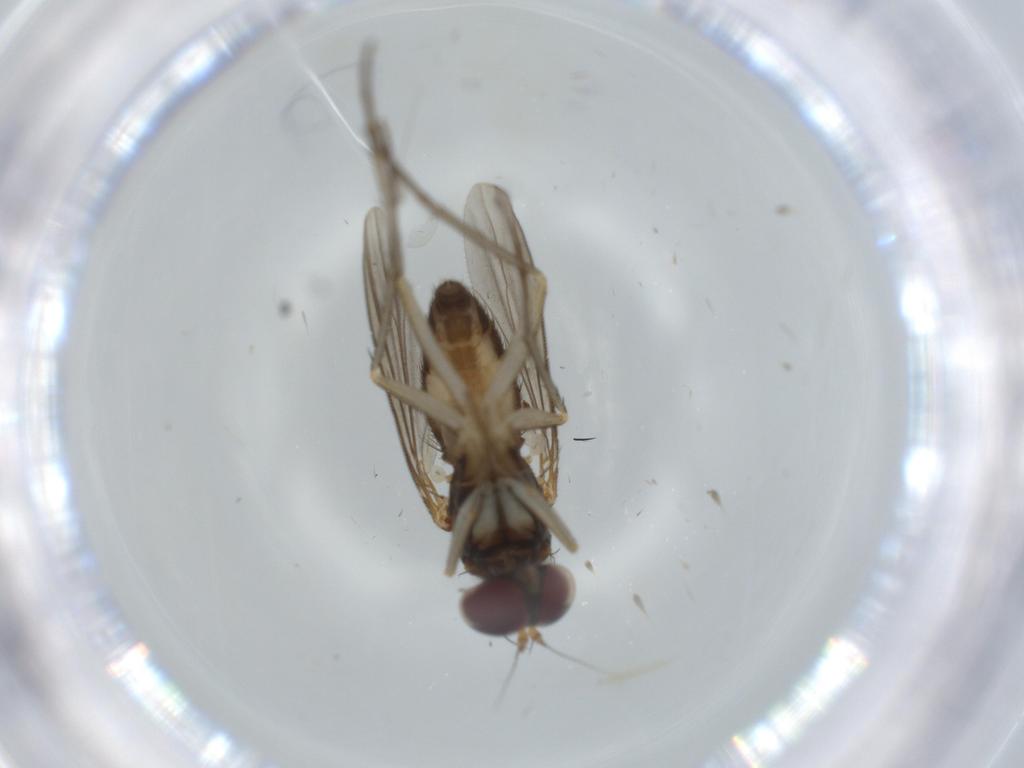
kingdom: Animalia
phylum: Arthropoda
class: Insecta
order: Diptera
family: Dolichopodidae
